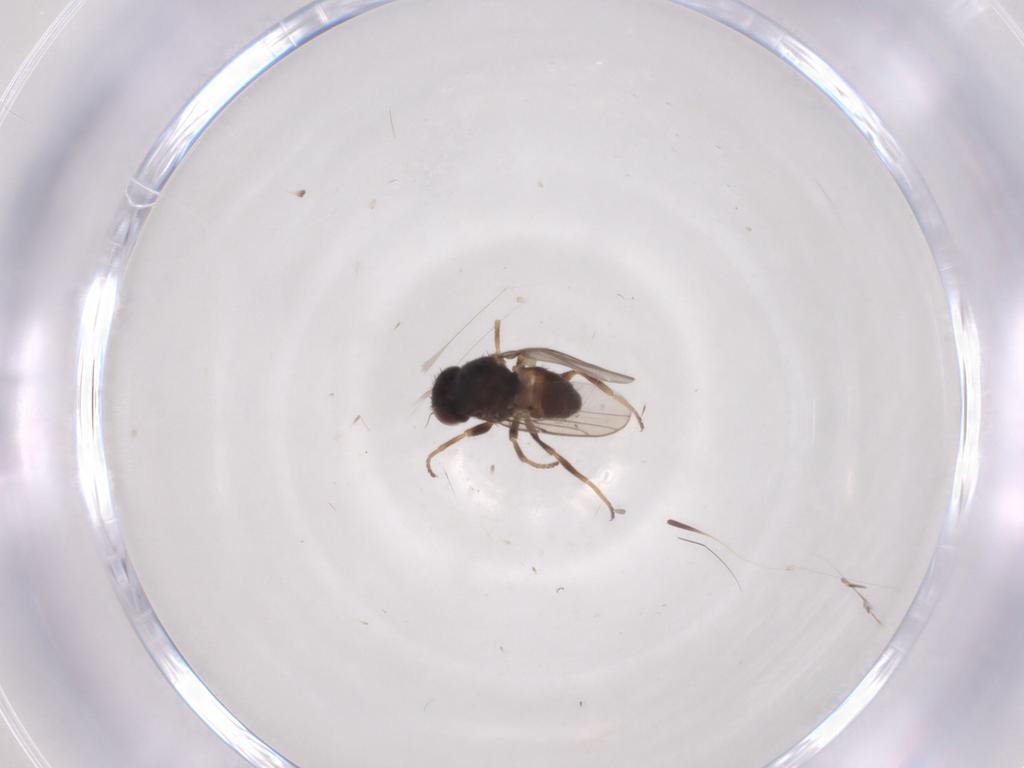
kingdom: Animalia
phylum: Arthropoda
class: Insecta
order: Diptera
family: Chloropidae
